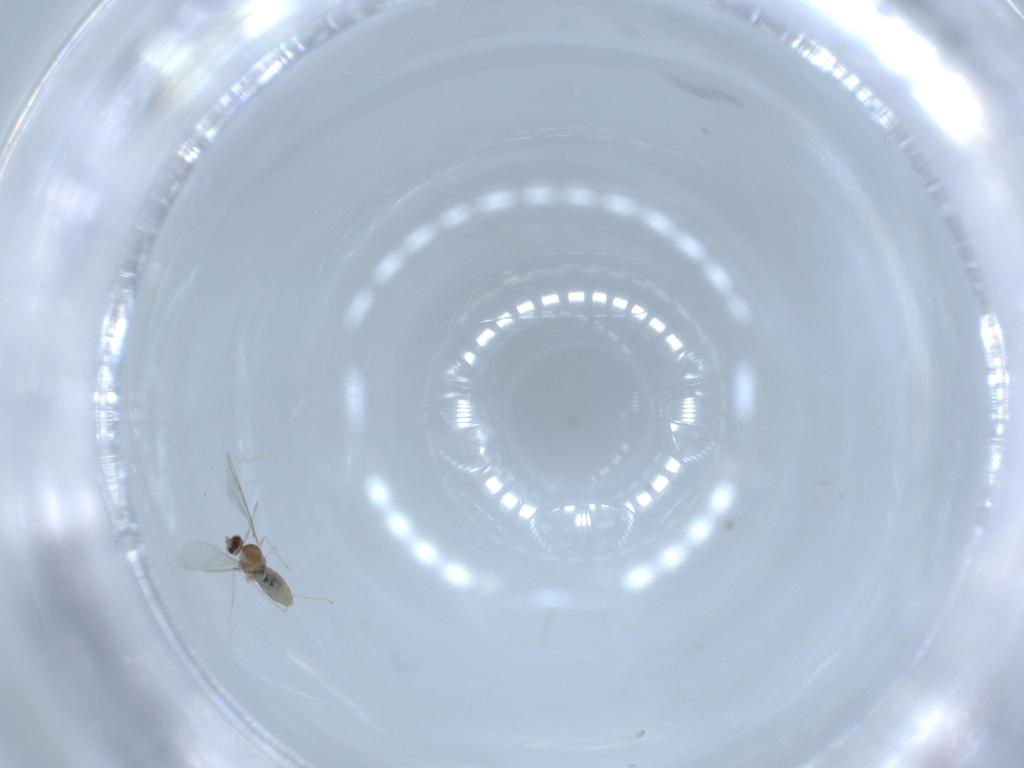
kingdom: Animalia
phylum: Arthropoda
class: Insecta
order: Diptera
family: Cecidomyiidae
